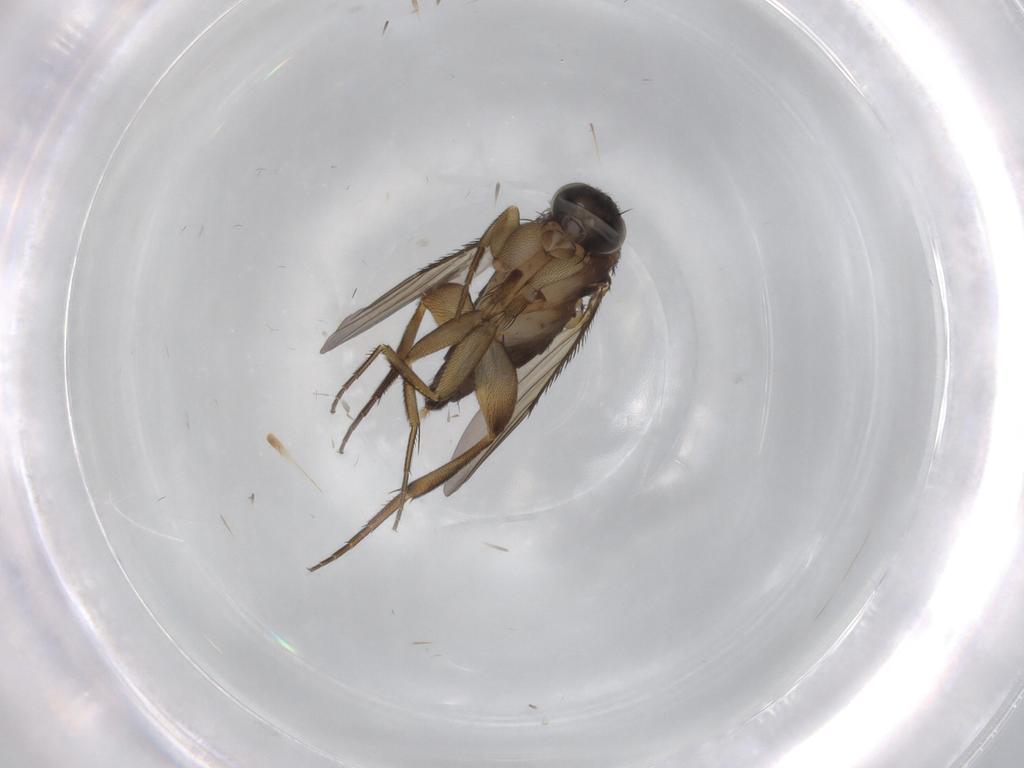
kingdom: Animalia
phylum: Arthropoda
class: Insecta
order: Diptera
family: Phoridae
